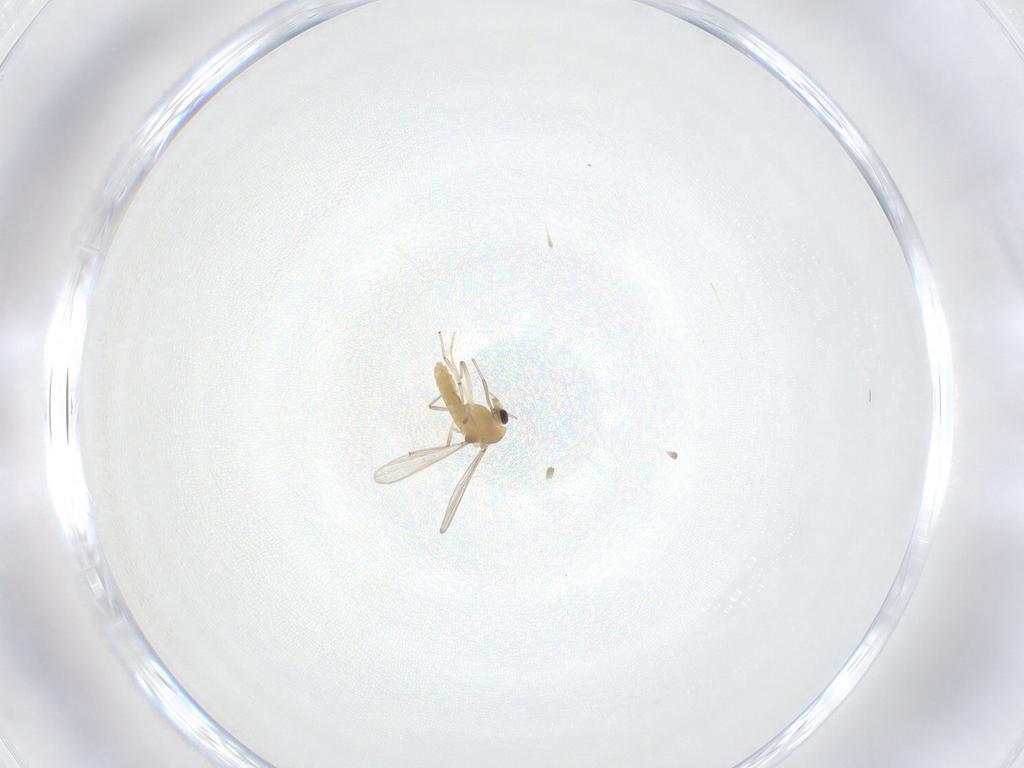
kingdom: Animalia
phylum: Arthropoda
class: Insecta
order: Diptera
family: Chironomidae
